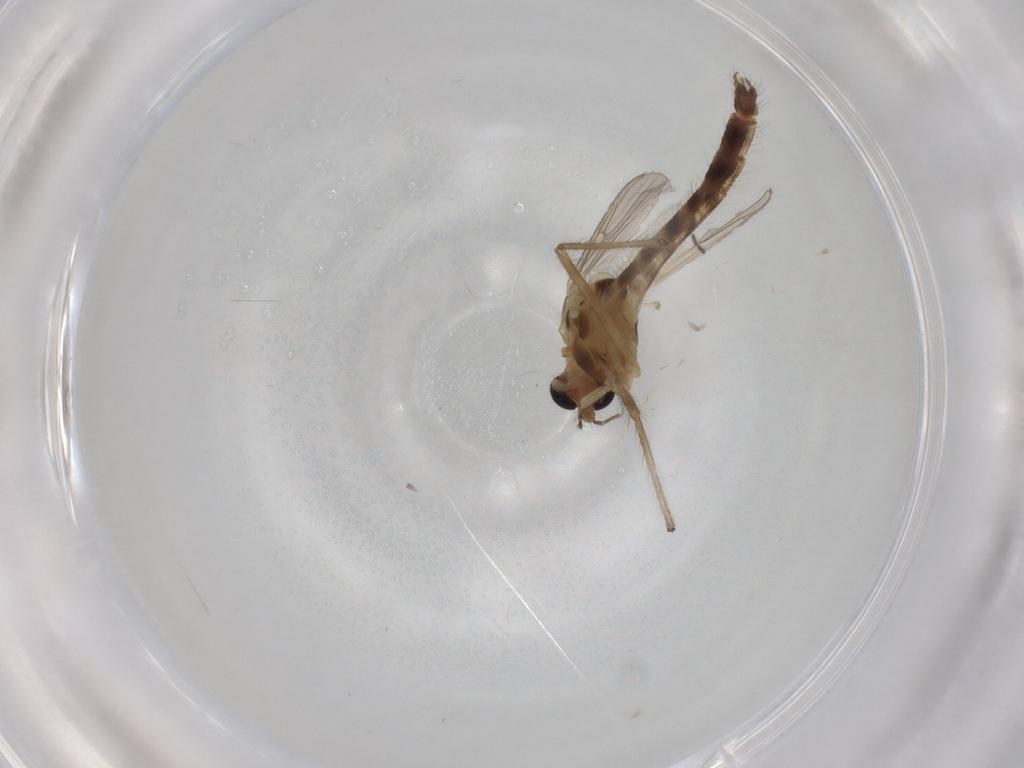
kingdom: Animalia
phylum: Arthropoda
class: Insecta
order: Diptera
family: Chironomidae
